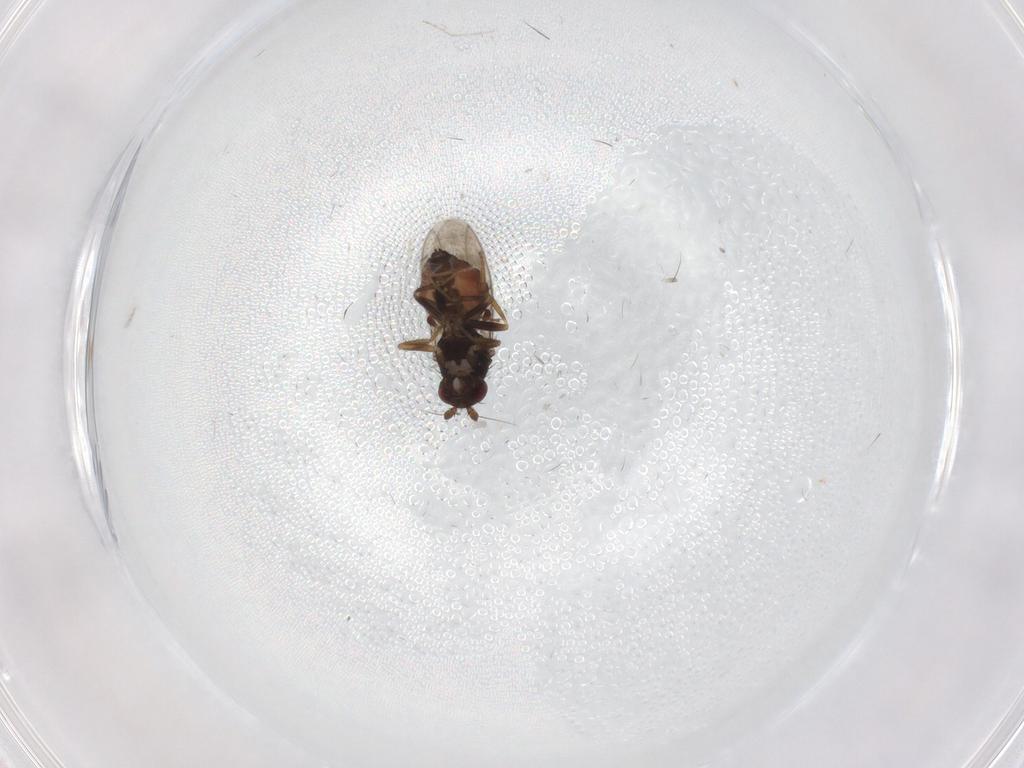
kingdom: Animalia
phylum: Arthropoda
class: Insecta
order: Diptera
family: Sphaeroceridae
